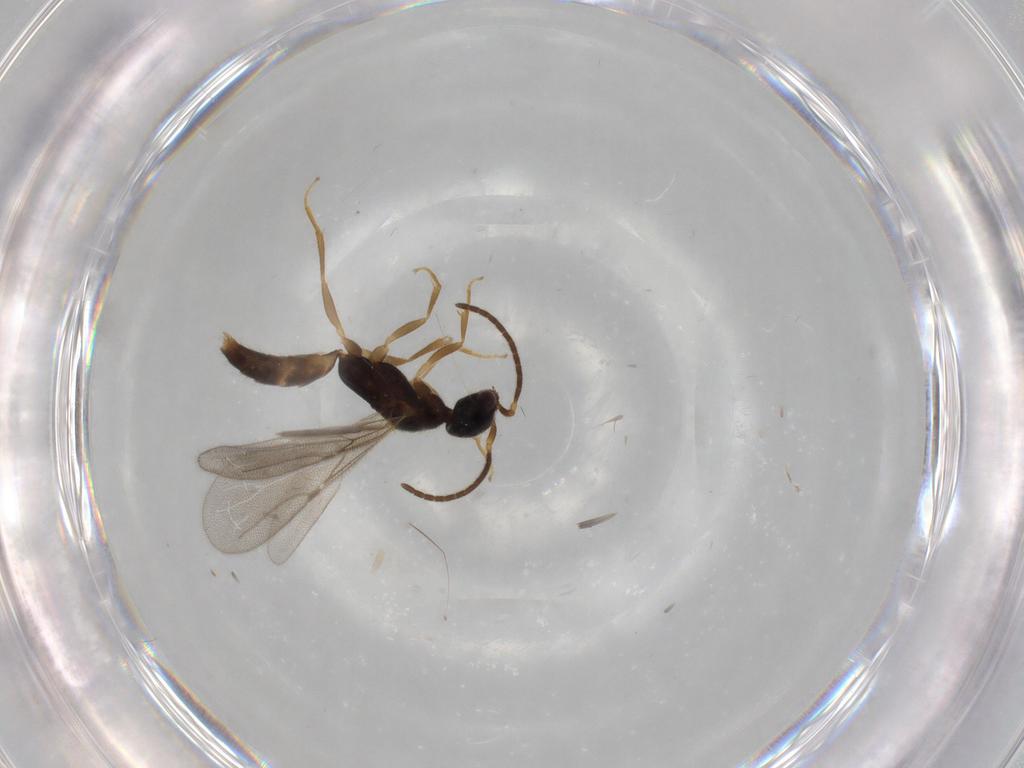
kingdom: Animalia
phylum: Arthropoda
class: Insecta
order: Hymenoptera
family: Bethylidae
